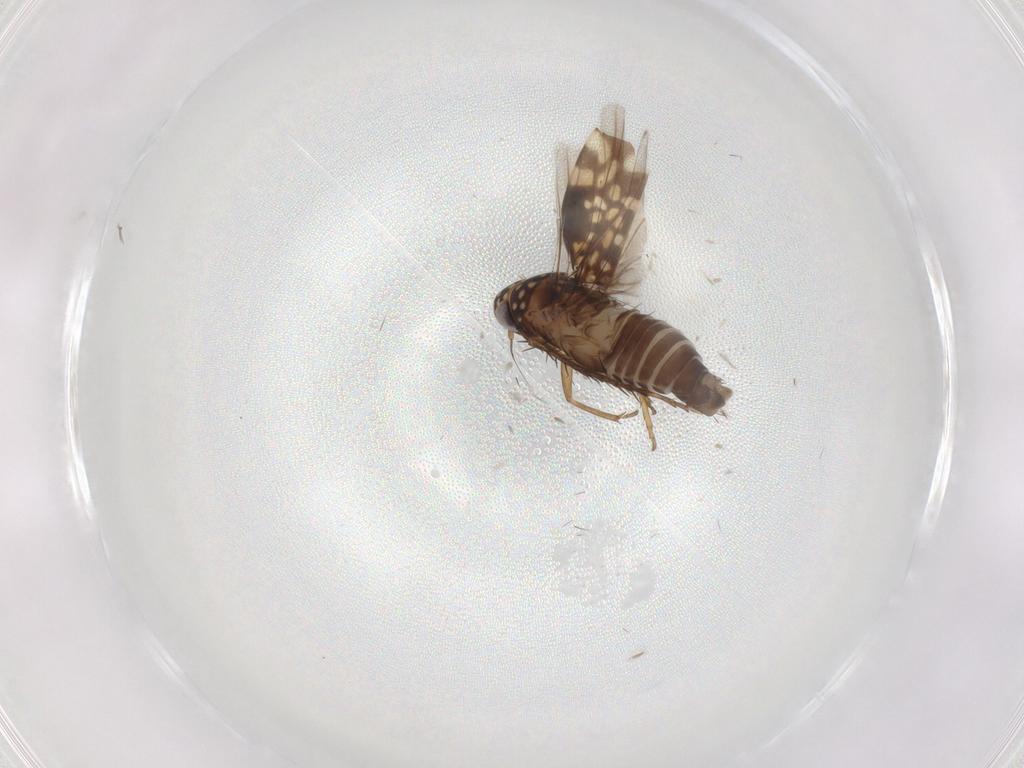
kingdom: Animalia
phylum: Arthropoda
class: Insecta
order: Hemiptera
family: Cicadellidae
